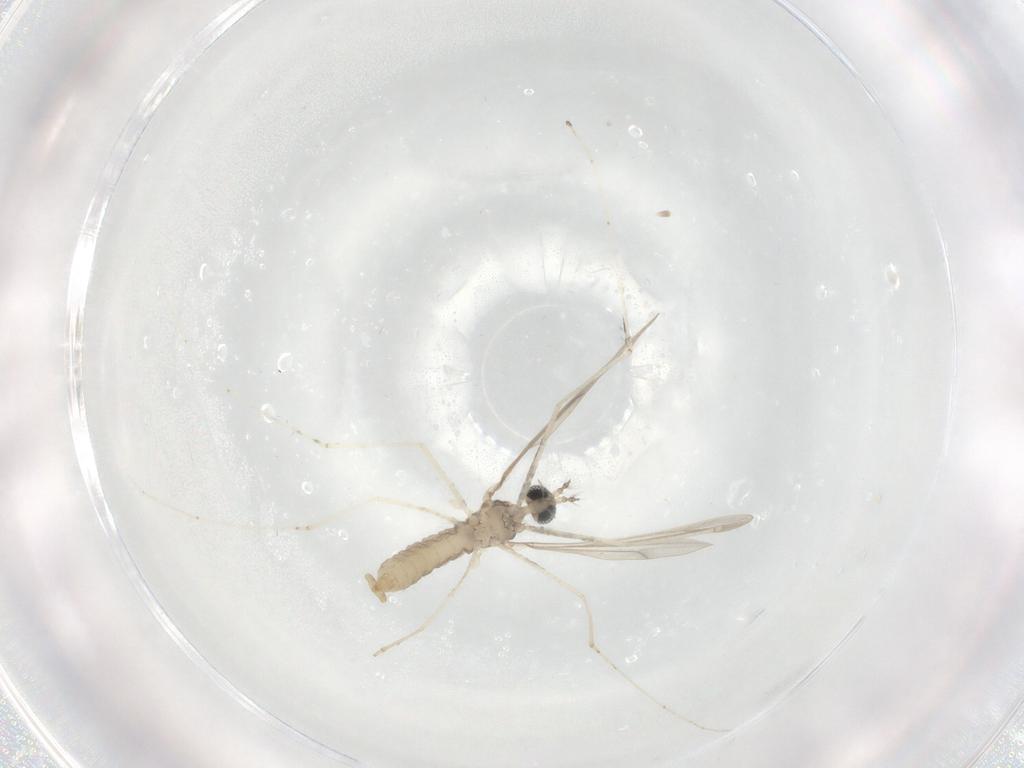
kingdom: Animalia
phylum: Arthropoda
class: Insecta
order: Diptera
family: Cecidomyiidae
